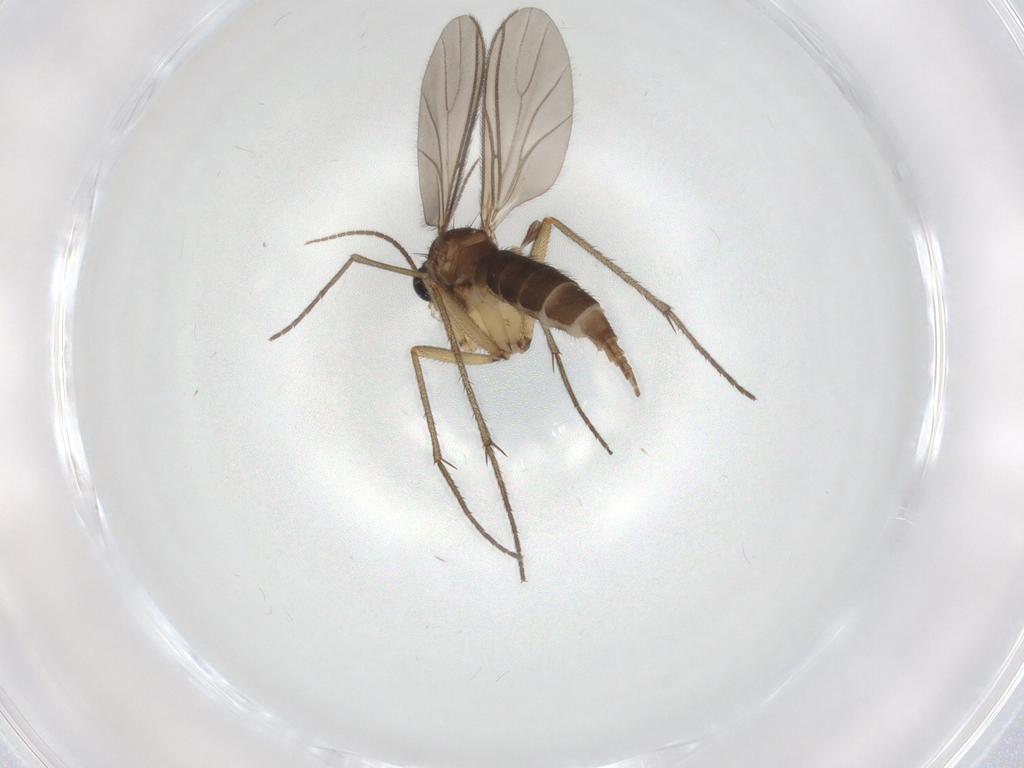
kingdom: Animalia
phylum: Arthropoda
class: Insecta
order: Diptera
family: Sciaridae
